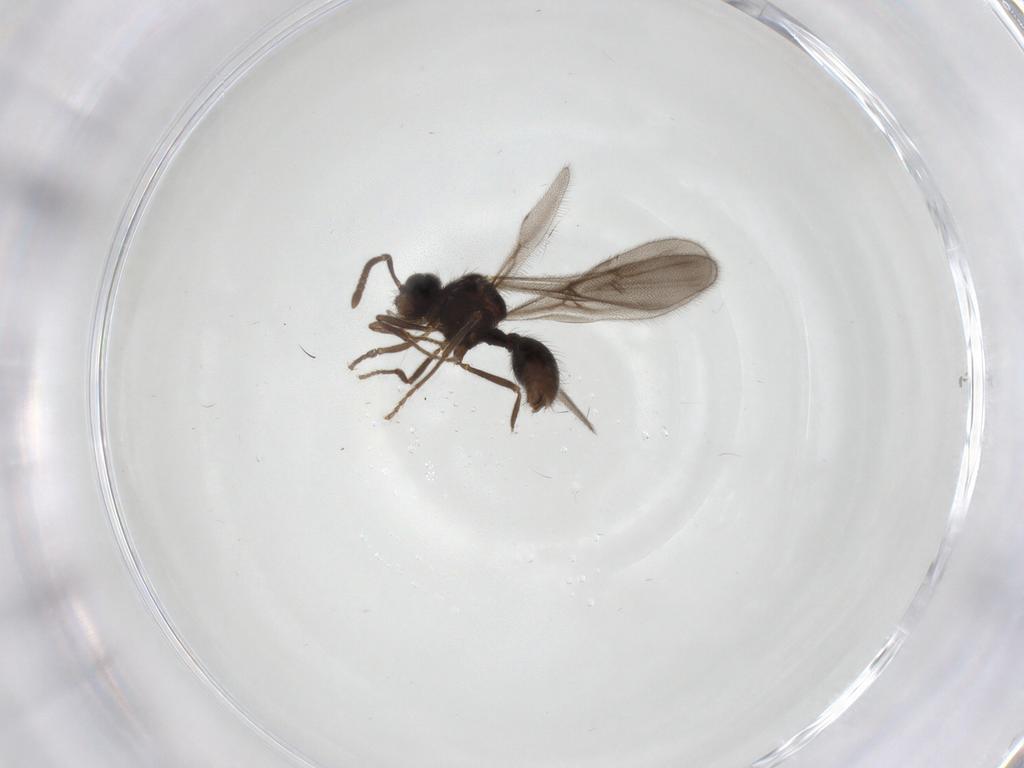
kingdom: Animalia
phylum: Arthropoda
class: Insecta
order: Hymenoptera
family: Formicidae
